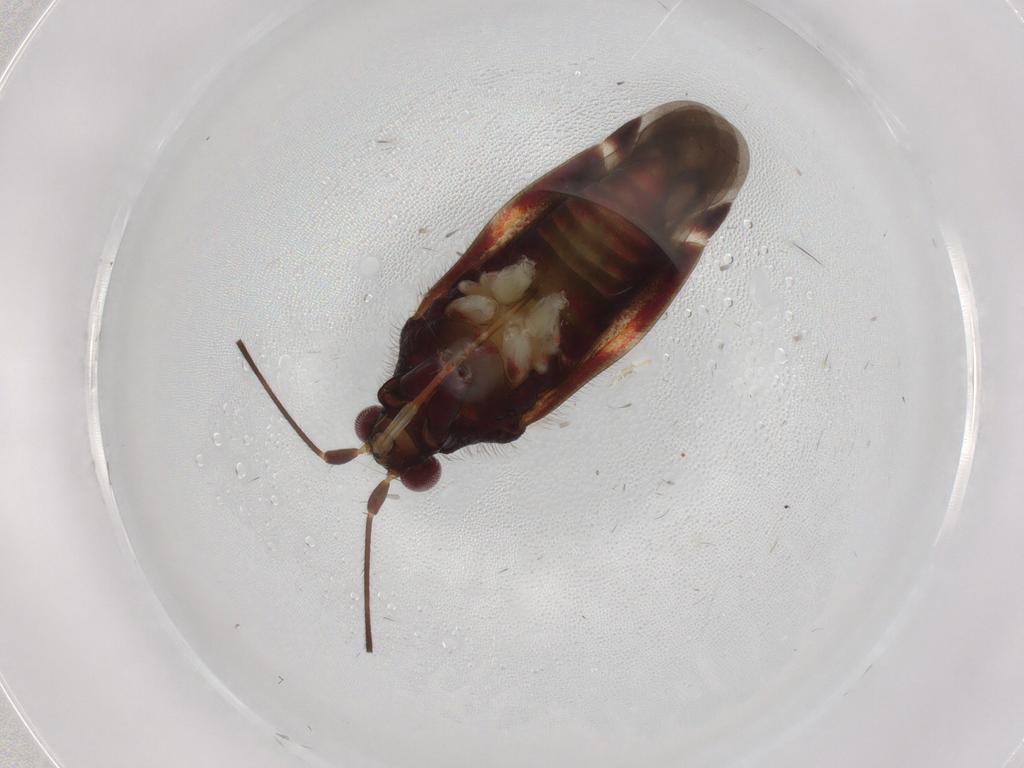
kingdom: Animalia
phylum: Arthropoda
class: Insecta
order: Hemiptera
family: Miridae
